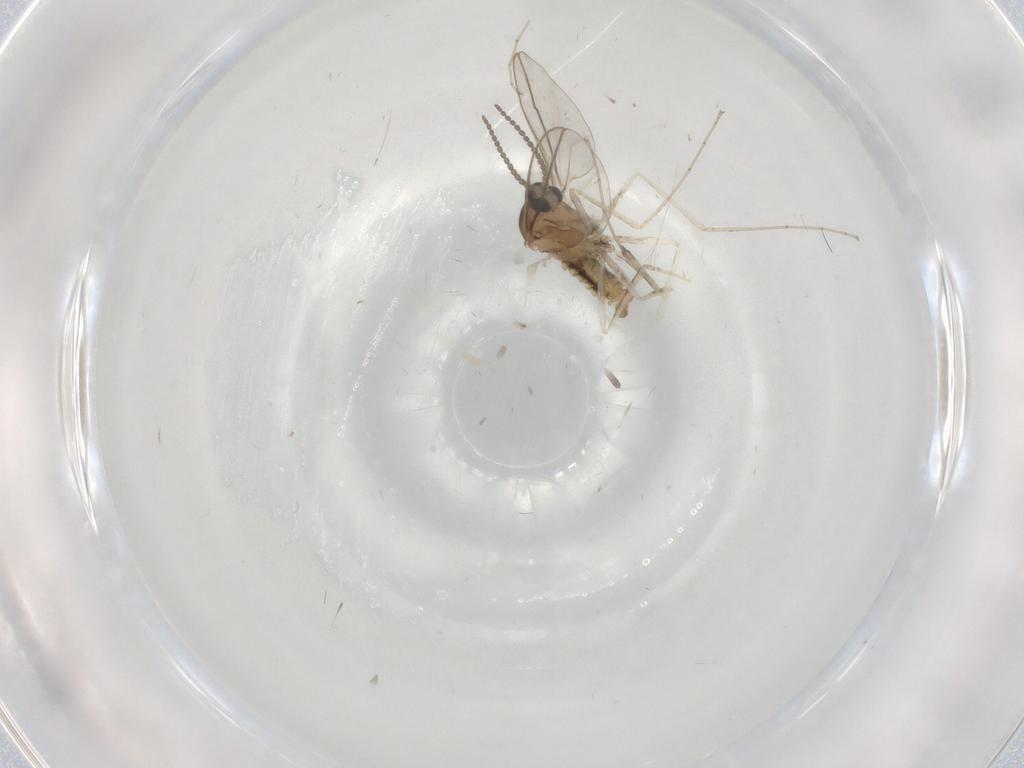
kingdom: Animalia
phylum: Arthropoda
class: Insecta
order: Diptera
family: Cecidomyiidae
